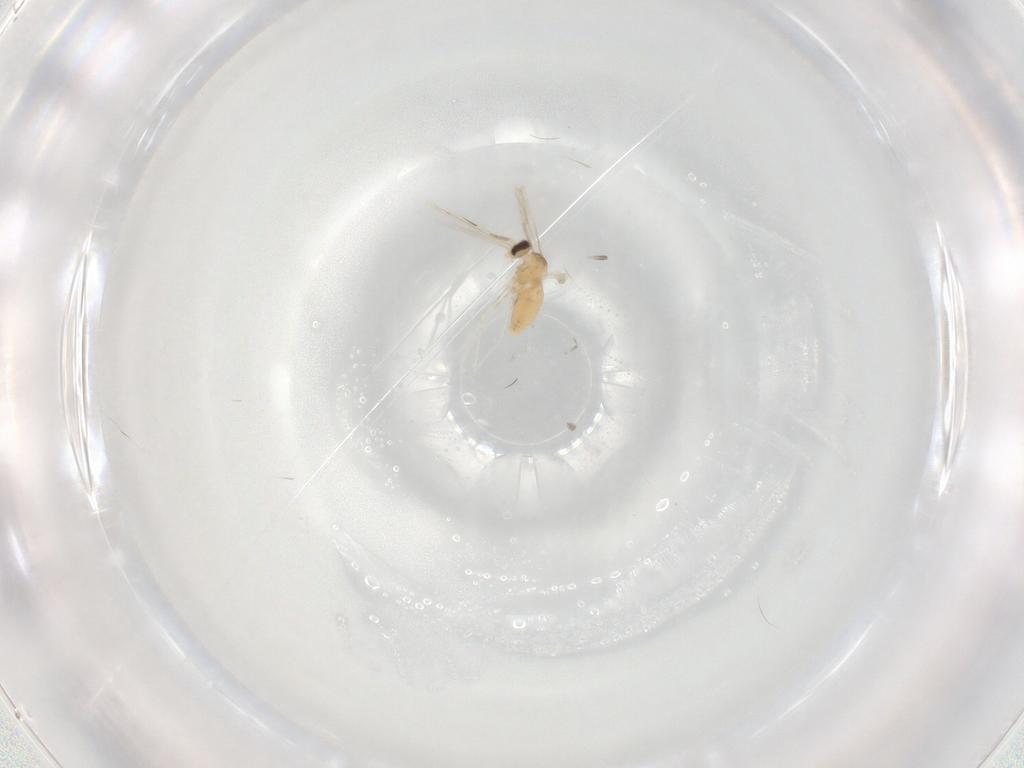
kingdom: Animalia
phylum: Arthropoda
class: Insecta
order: Diptera
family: Cecidomyiidae
